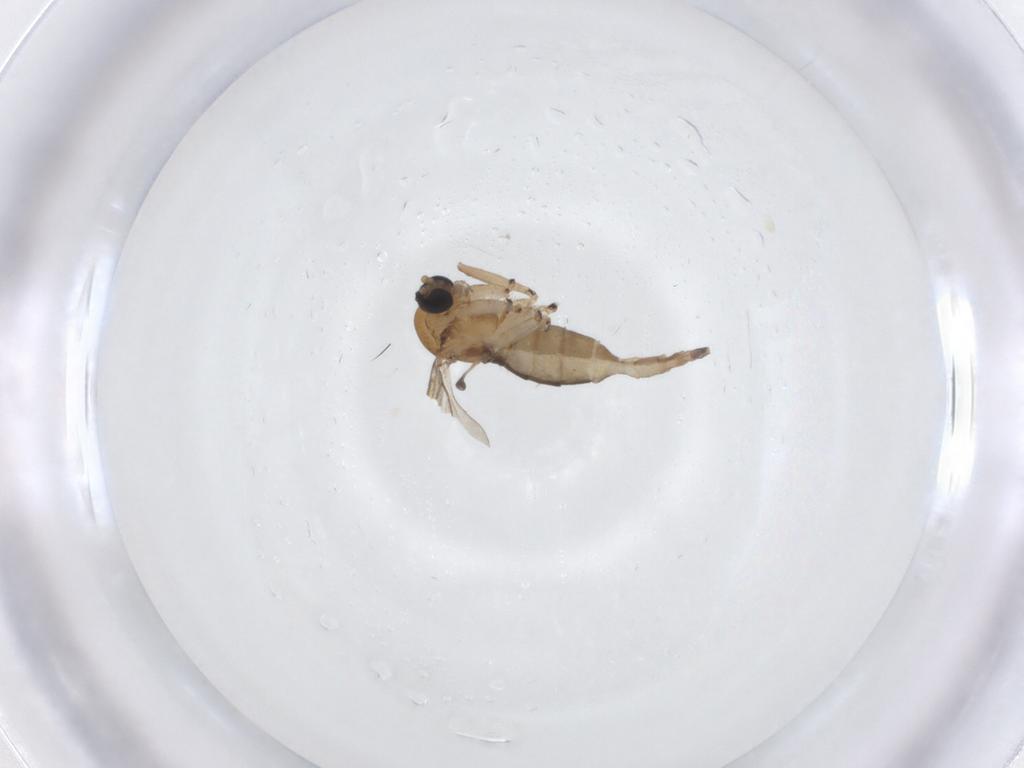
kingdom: Animalia
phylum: Arthropoda
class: Insecta
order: Diptera
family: Sciaridae
